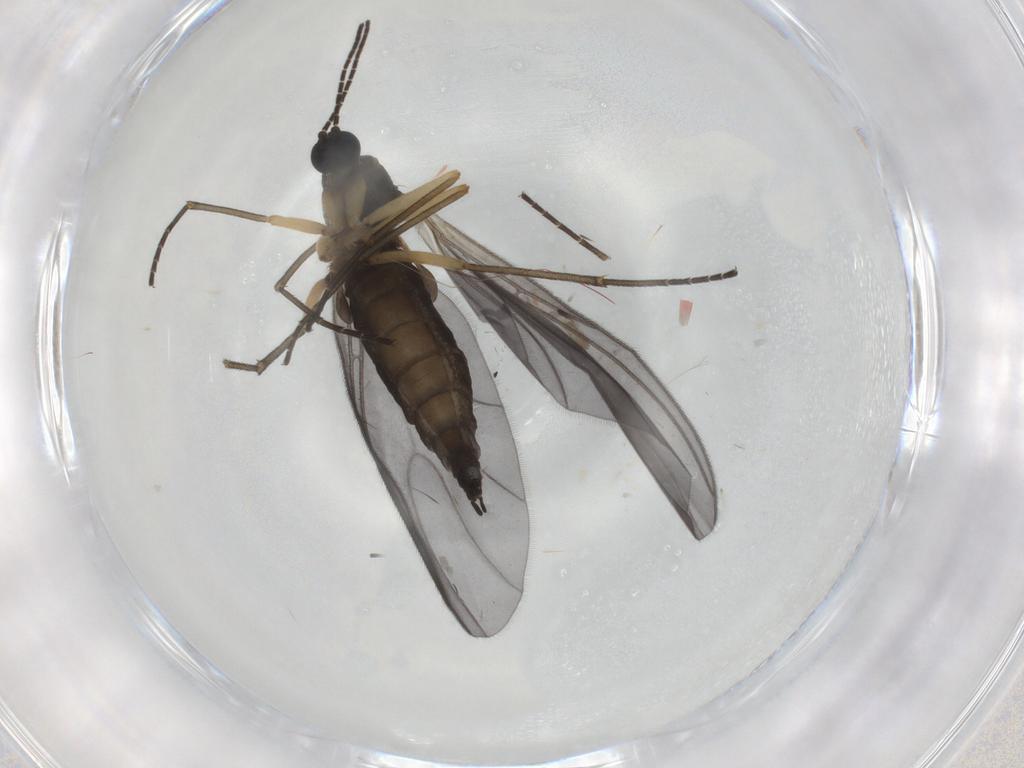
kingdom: Animalia
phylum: Arthropoda
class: Insecta
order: Diptera
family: Sciaridae
